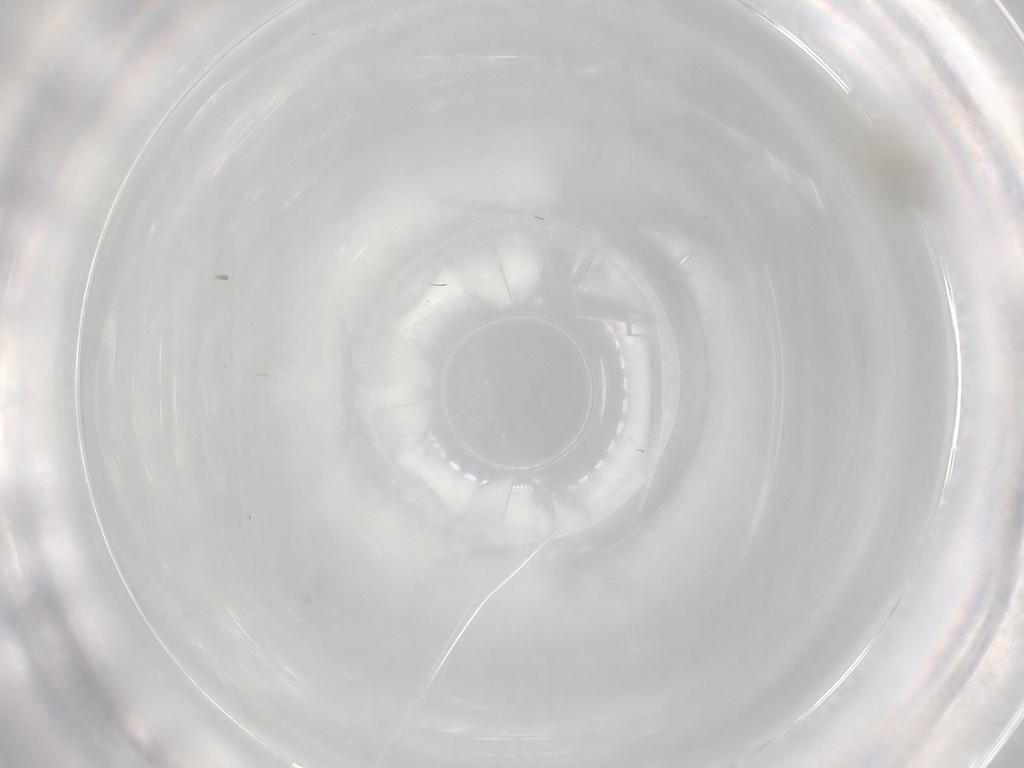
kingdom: Animalia
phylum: Arthropoda
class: Insecta
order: Diptera
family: Cecidomyiidae
